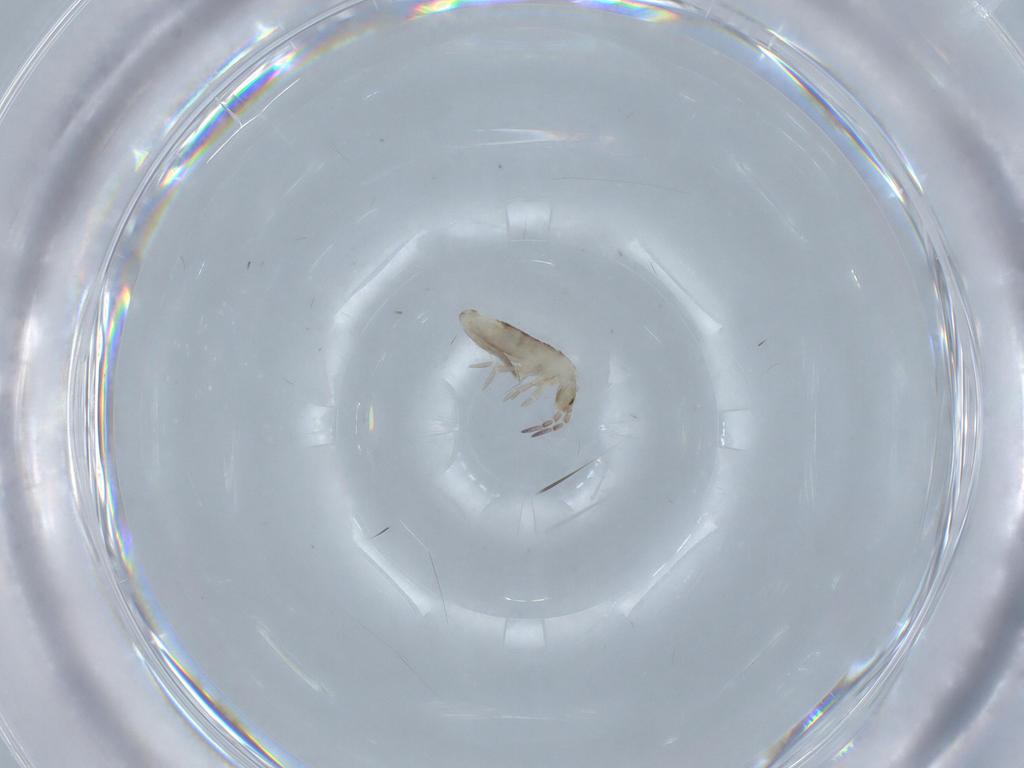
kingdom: Animalia
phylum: Arthropoda
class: Collembola
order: Entomobryomorpha
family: Entomobryidae
